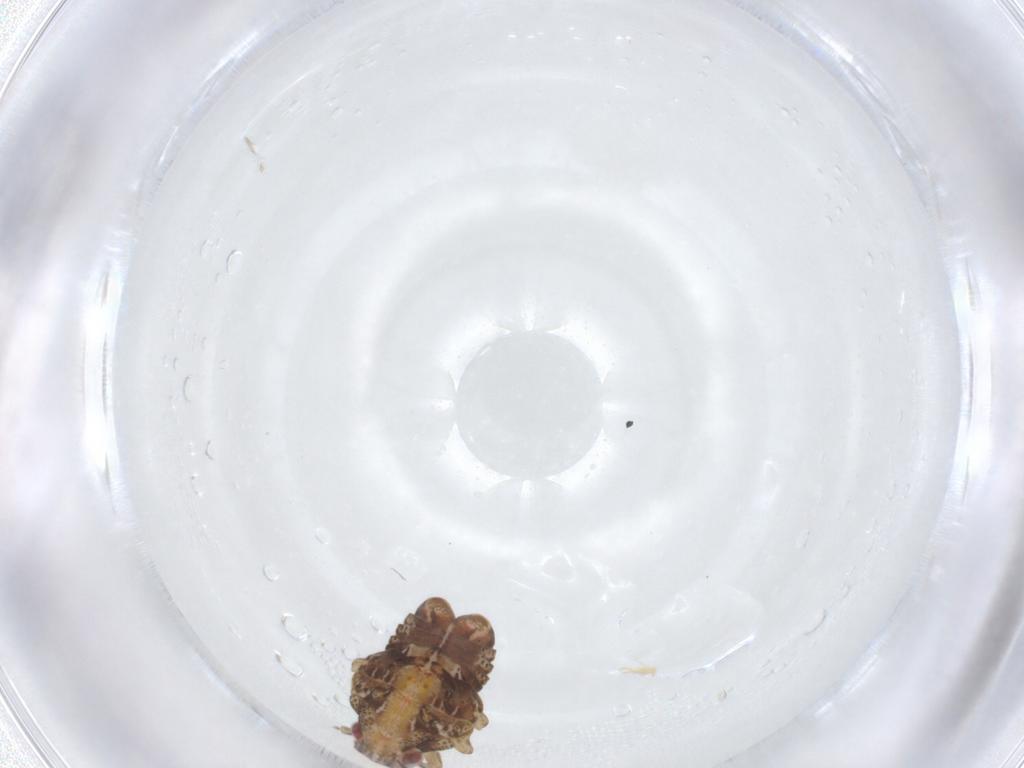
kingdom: Animalia
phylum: Arthropoda
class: Insecta
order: Hemiptera
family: Flatidae
